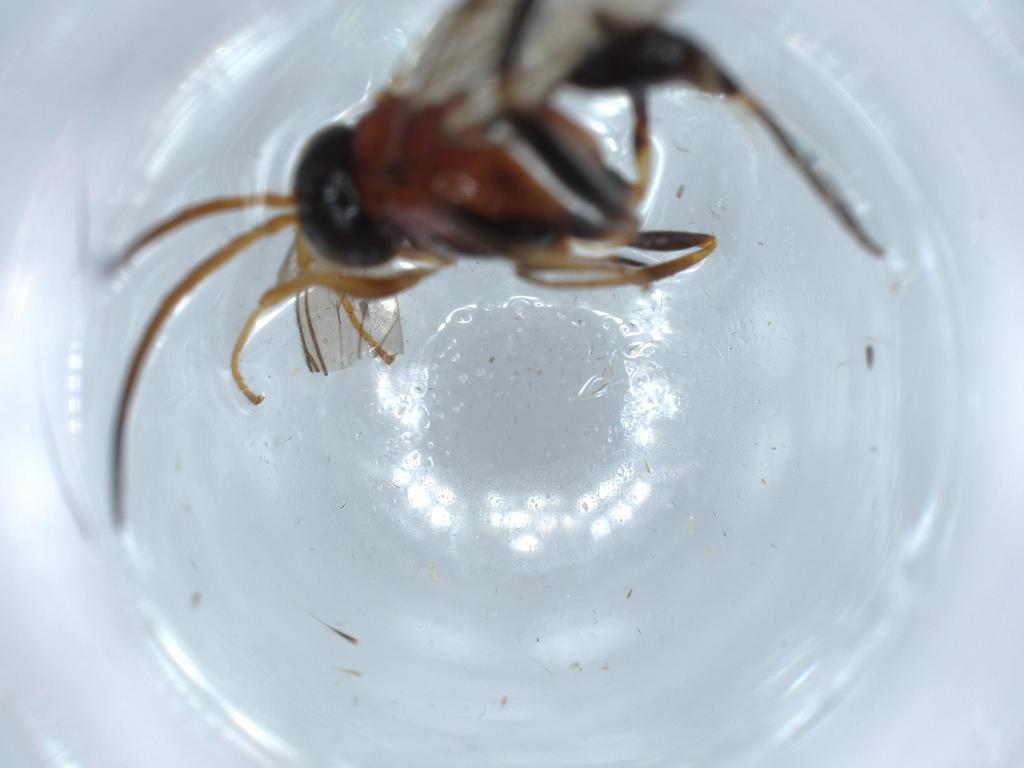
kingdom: Animalia
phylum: Arthropoda
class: Insecta
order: Hymenoptera
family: Evaniidae
